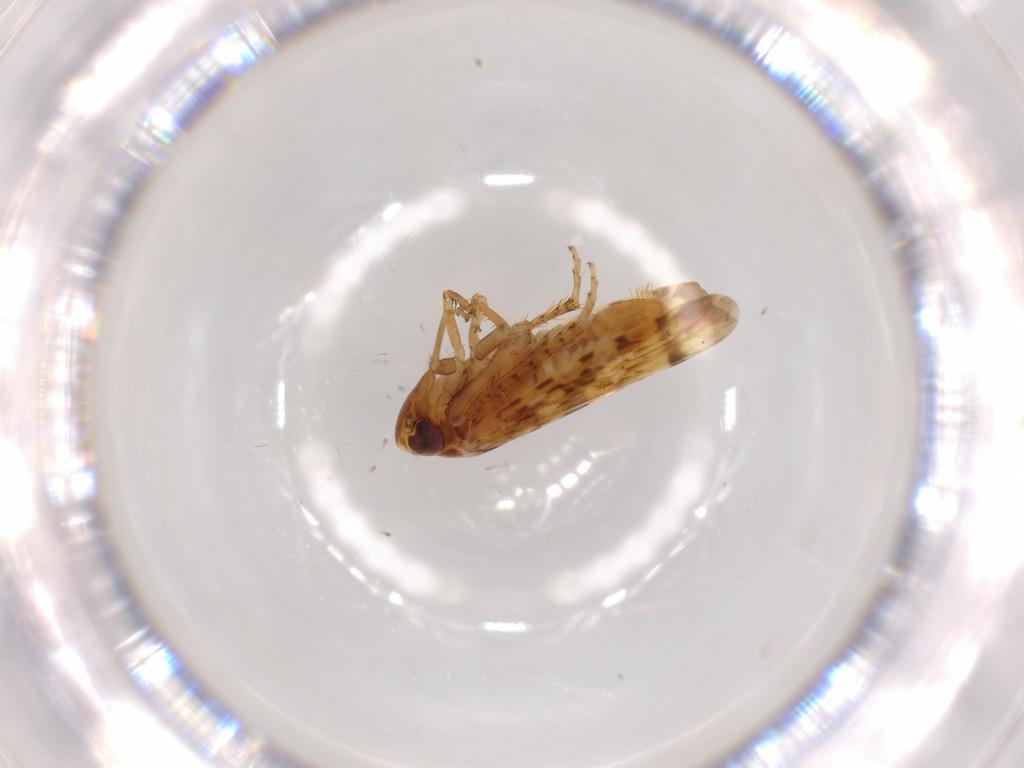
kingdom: Animalia
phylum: Arthropoda
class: Insecta
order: Hemiptera
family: Cicadellidae
